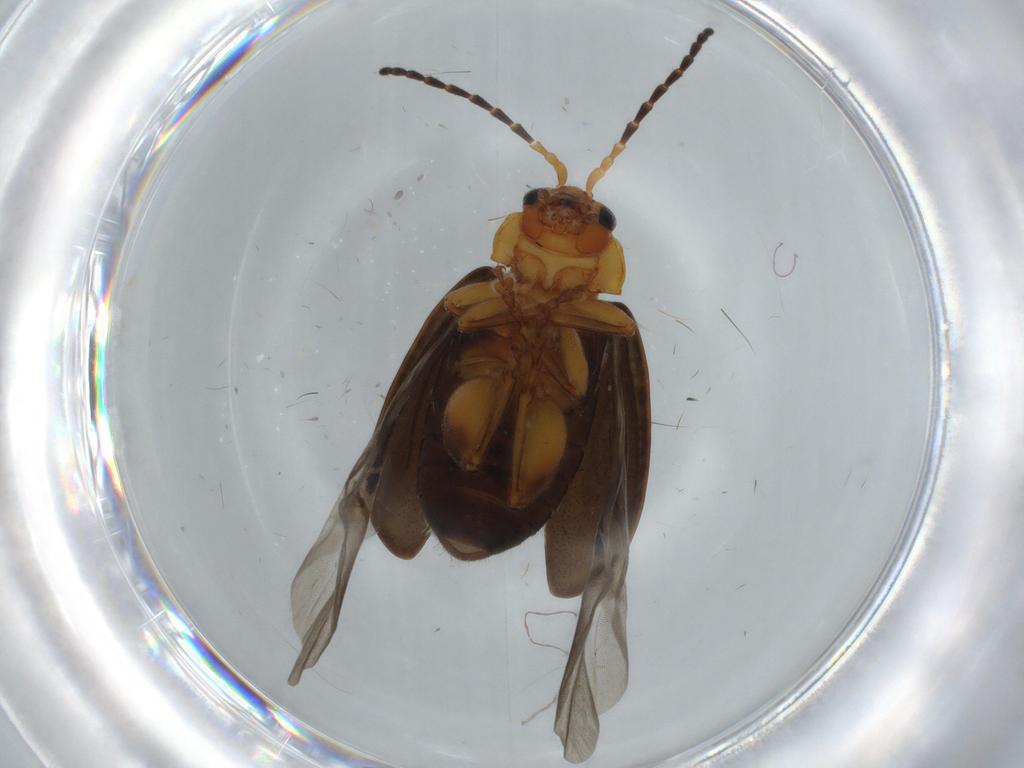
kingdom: Animalia
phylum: Arthropoda
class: Insecta
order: Coleoptera
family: Chrysomelidae
